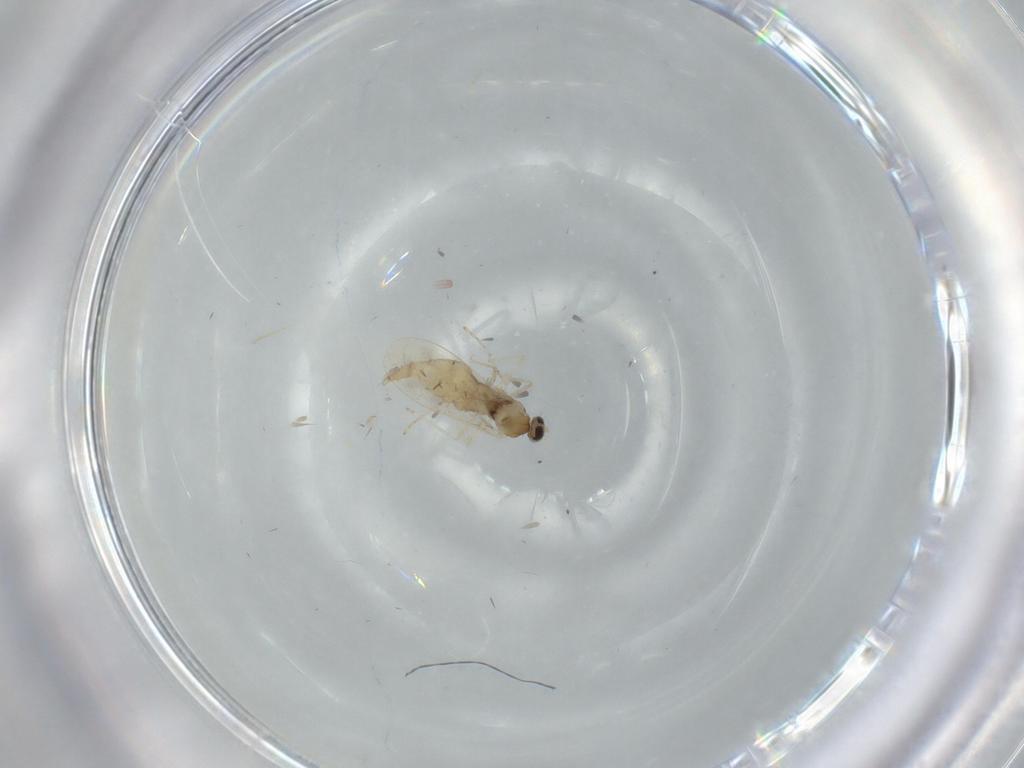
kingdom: Animalia
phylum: Arthropoda
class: Insecta
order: Diptera
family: Cecidomyiidae
